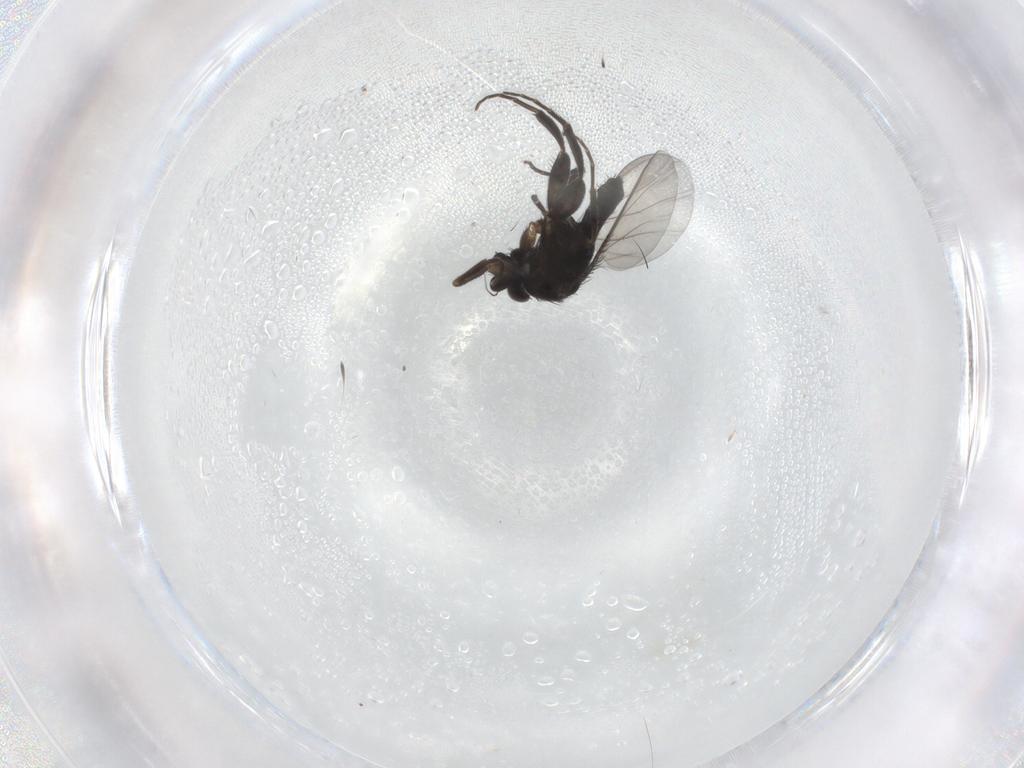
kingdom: Animalia
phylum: Arthropoda
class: Insecta
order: Diptera
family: Phoridae
